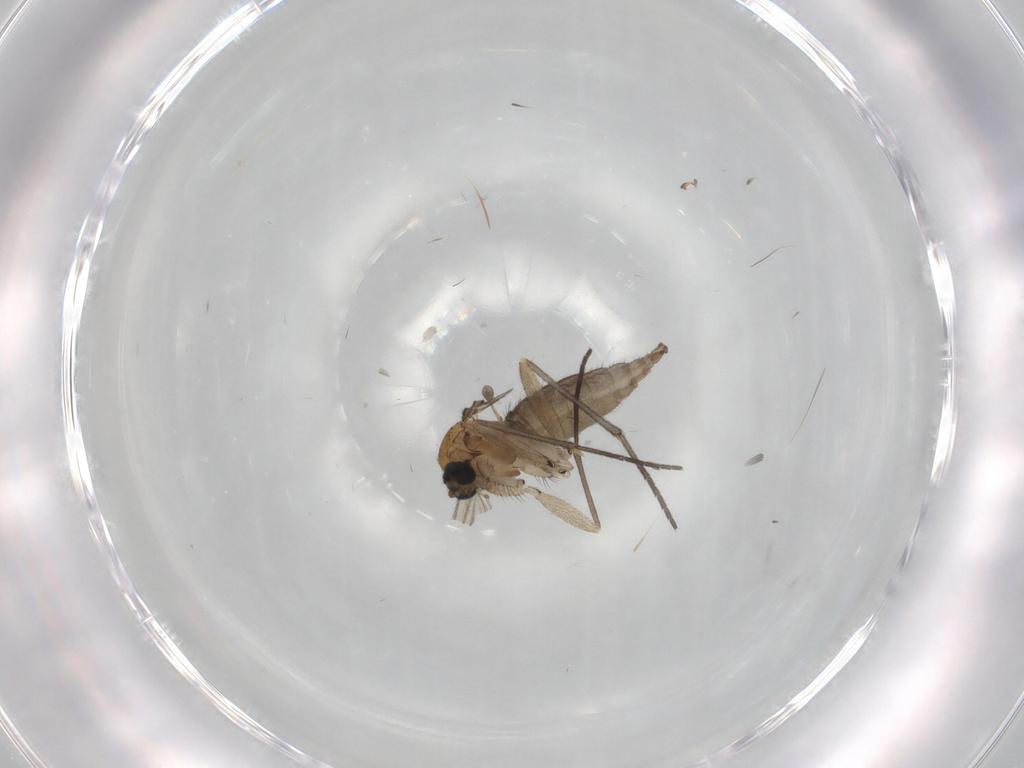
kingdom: Animalia
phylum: Arthropoda
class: Insecta
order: Diptera
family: Sciaridae
